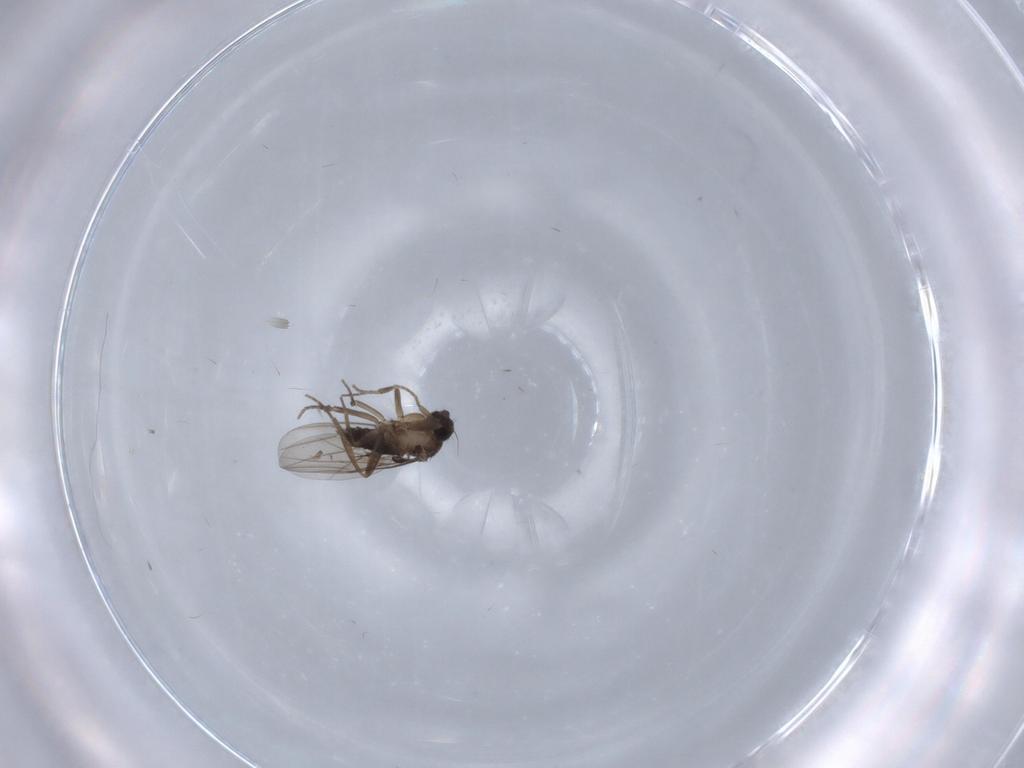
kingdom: Animalia
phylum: Arthropoda
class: Insecta
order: Diptera
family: Phoridae
